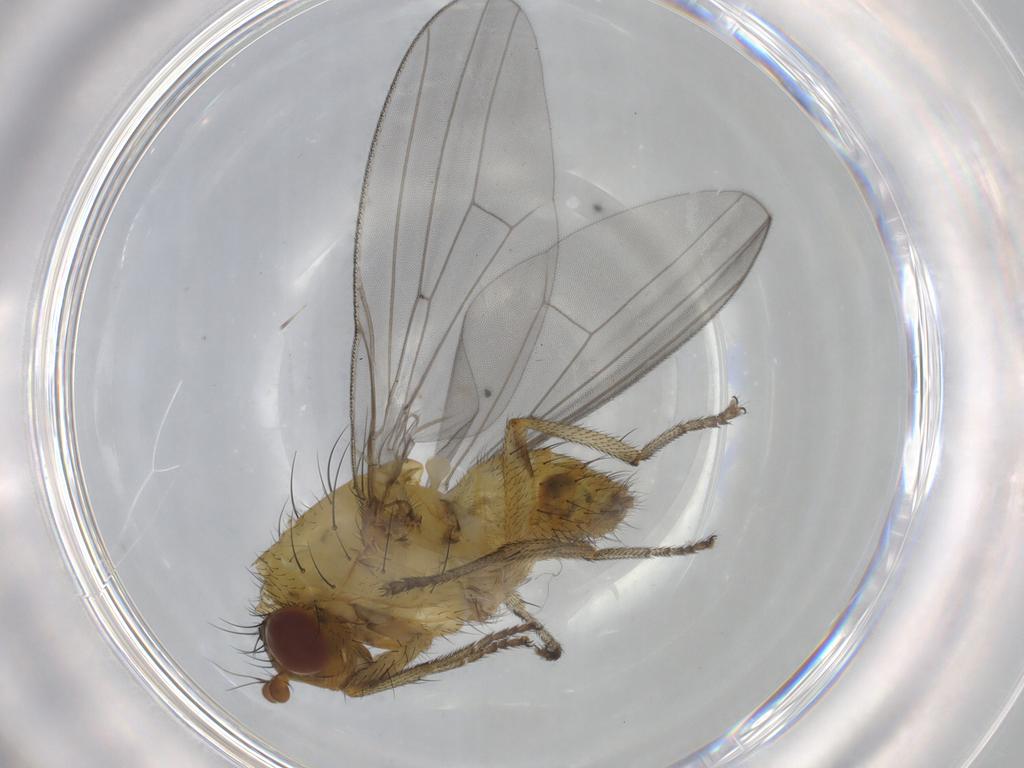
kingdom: Animalia
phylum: Arthropoda
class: Insecta
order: Diptera
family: Lauxaniidae
